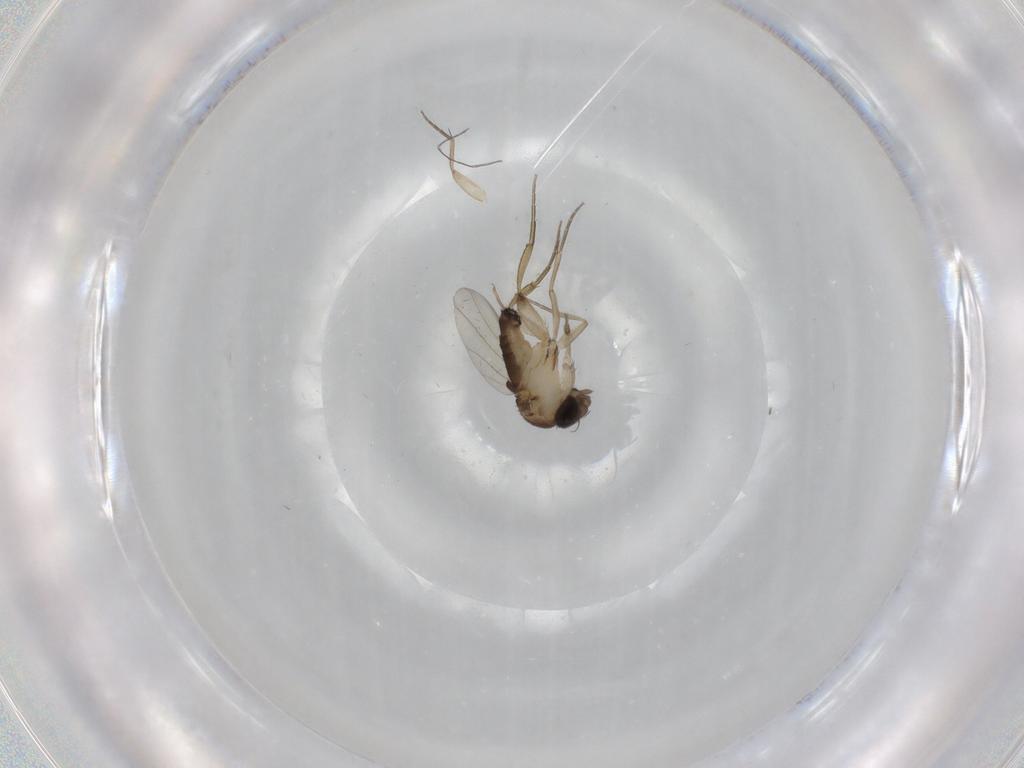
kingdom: Animalia
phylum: Arthropoda
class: Insecta
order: Diptera
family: Phoridae
